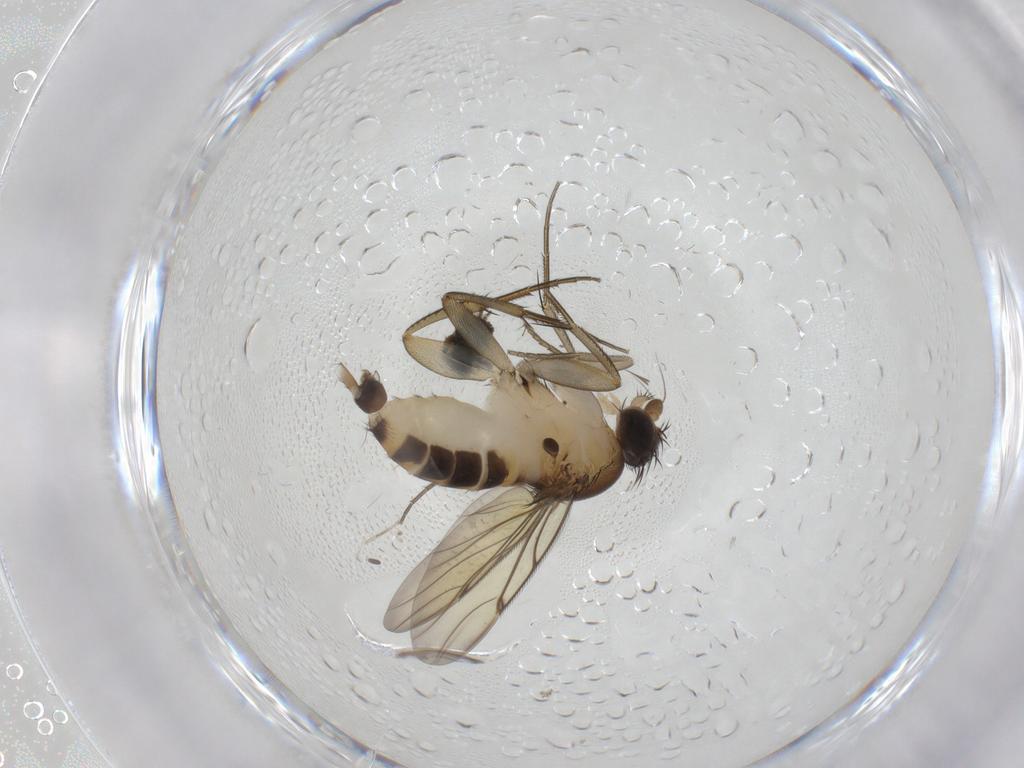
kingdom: Animalia
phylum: Arthropoda
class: Insecta
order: Diptera
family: Phoridae
